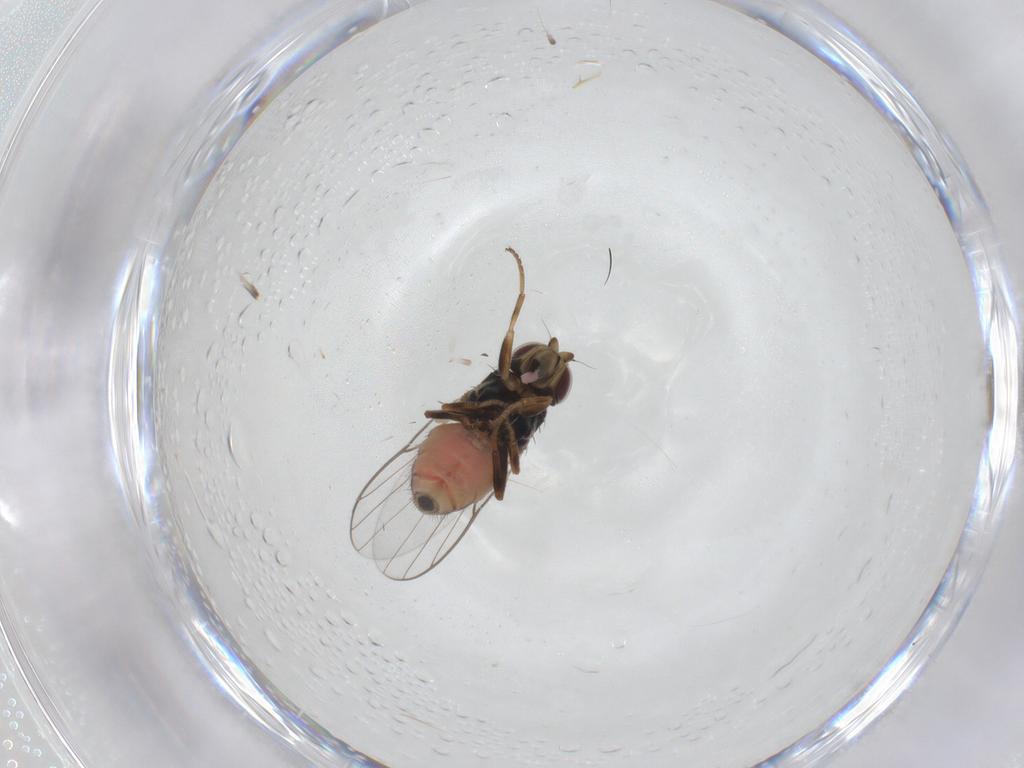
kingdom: Animalia
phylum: Arthropoda
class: Insecta
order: Diptera
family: Chloropidae
